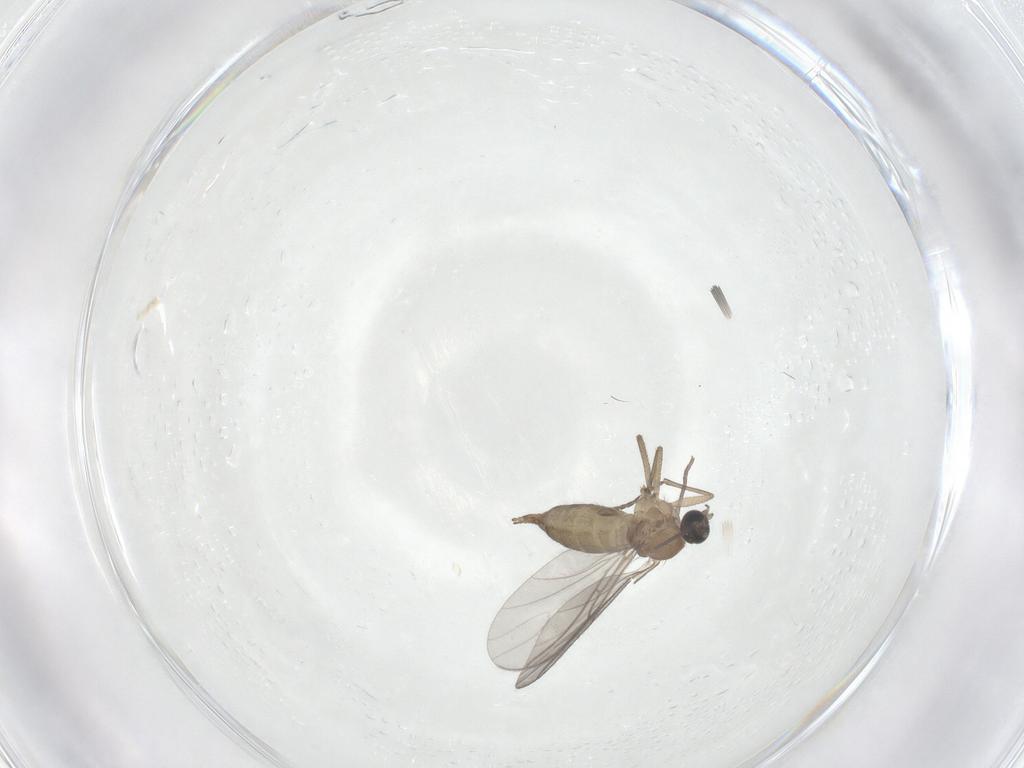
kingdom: Animalia
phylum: Arthropoda
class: Insecta
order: Diptera
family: Sciaridae
